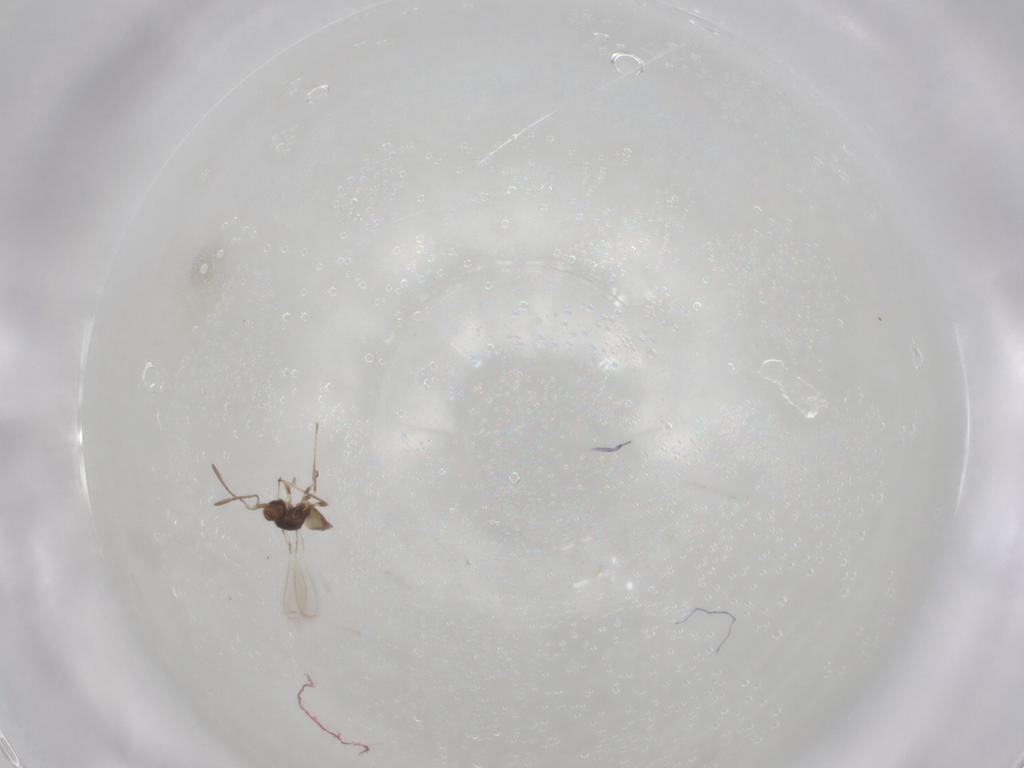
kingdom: Animalia
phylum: Arthropoda
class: Insecta
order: Hymenoptera
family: Mymaridae
